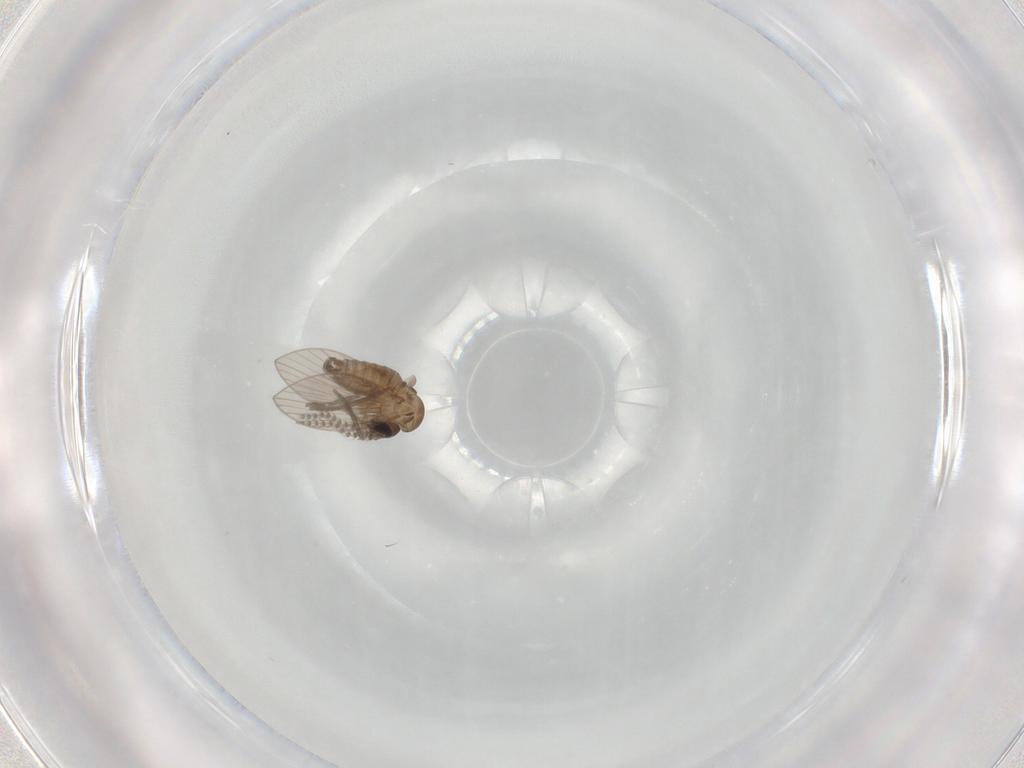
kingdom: Animalia
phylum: Arthropoda
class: Insecta
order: Diptera
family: Psychodidae
